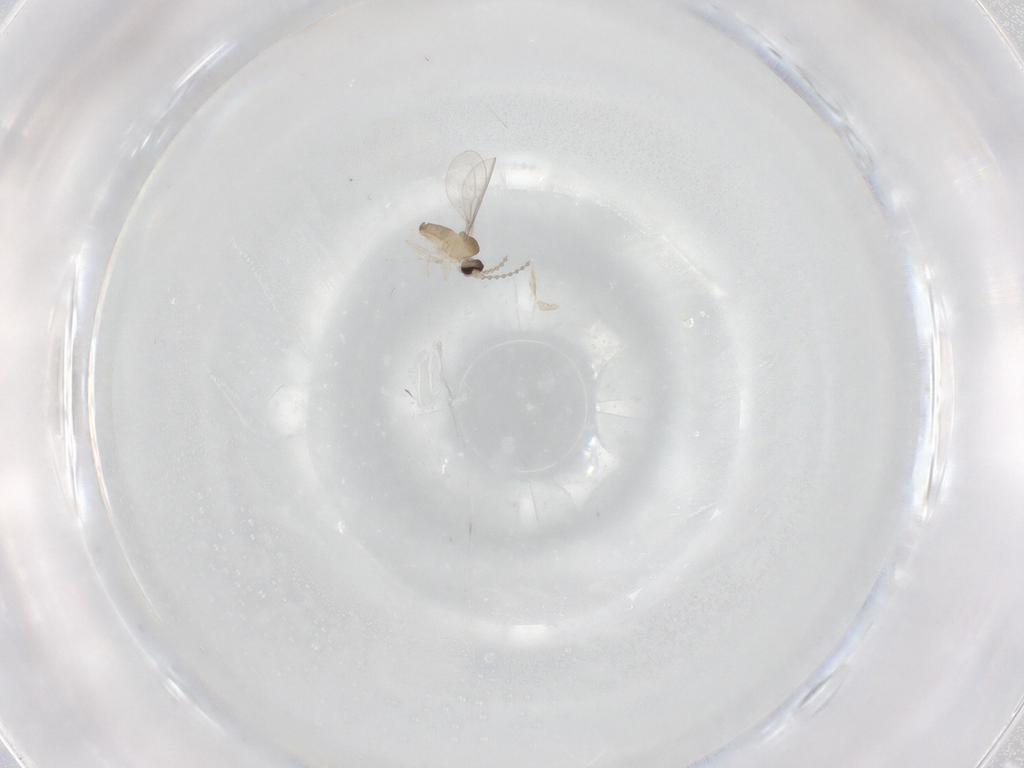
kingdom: Animalia
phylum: Arthropoda
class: Insecta
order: Diptera
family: Cecidomyiidae
